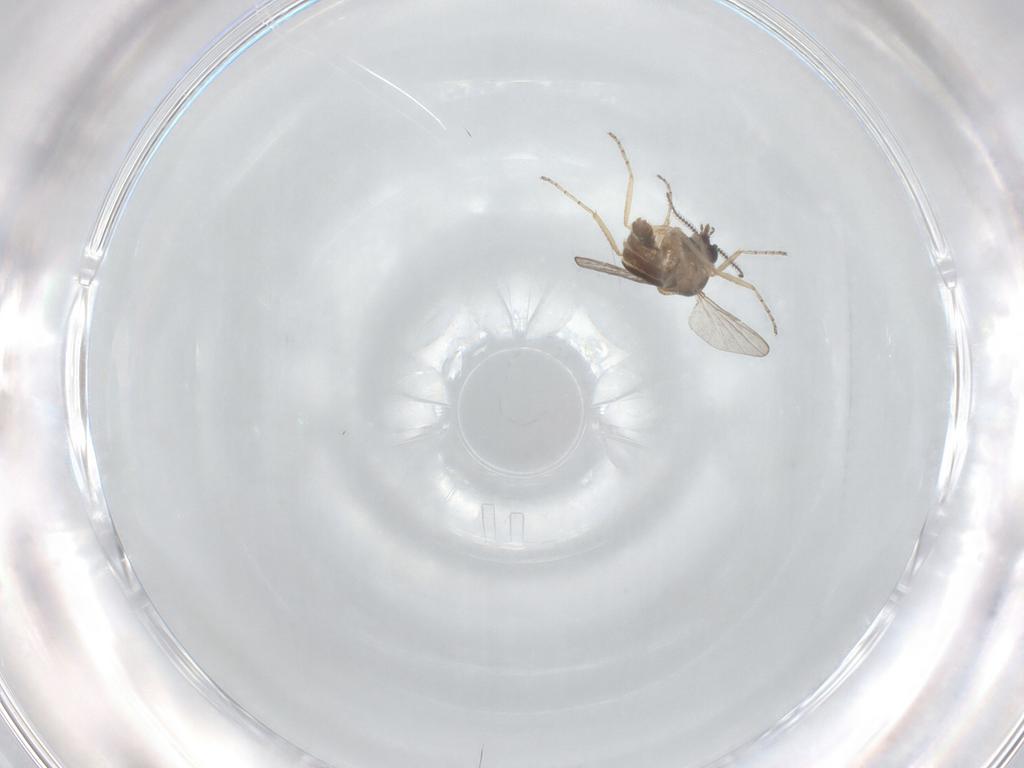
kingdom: Animalia
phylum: Arthropoda
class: Insecta
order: Diptera
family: Ceratopogonidae
